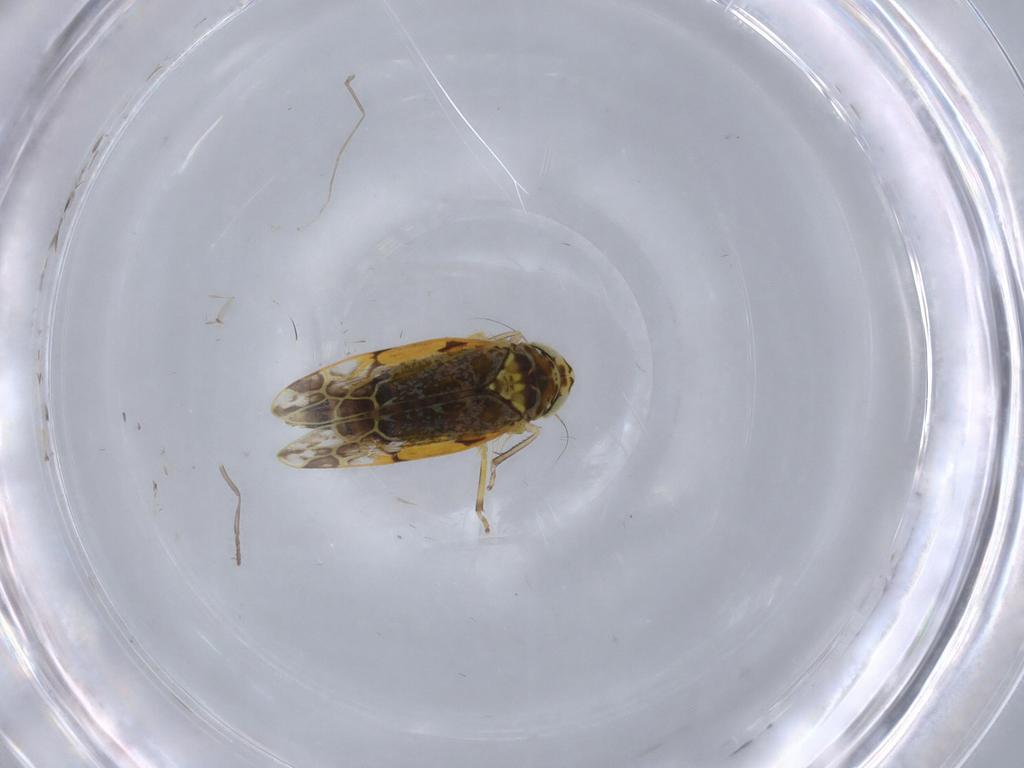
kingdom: Animalia
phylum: Arthropoda
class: Insecta
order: Hemiptera
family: Cicadellidae
